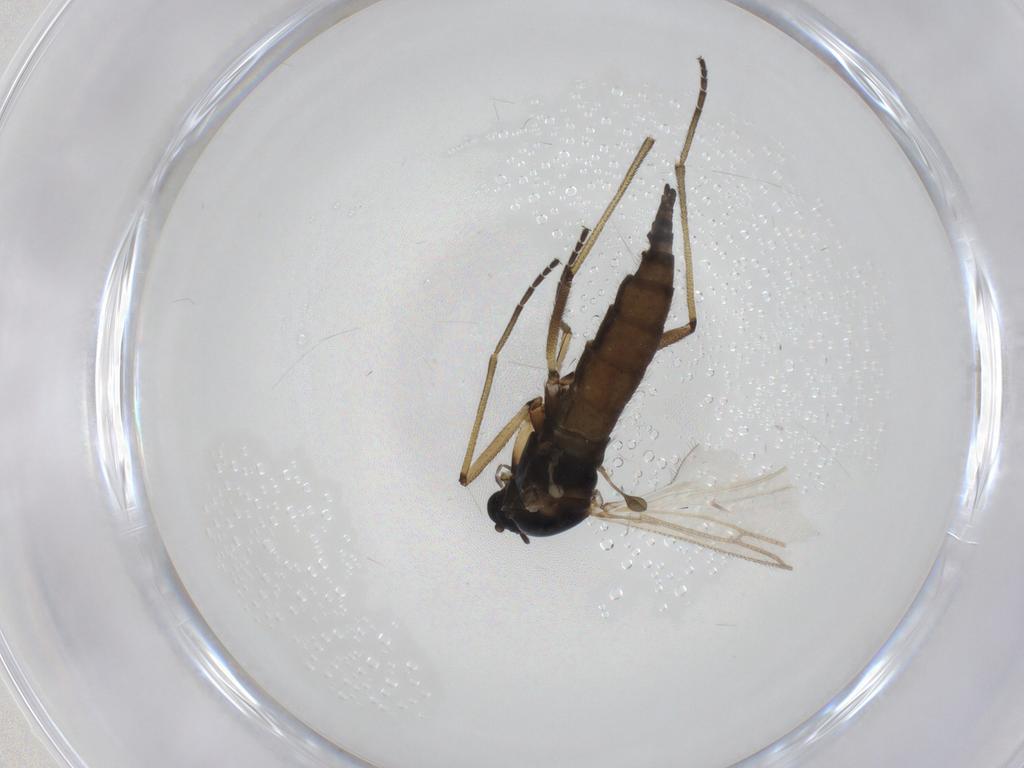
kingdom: Animalia
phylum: Arthropoda
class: Insecta
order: Diptera
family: Sciaridae
